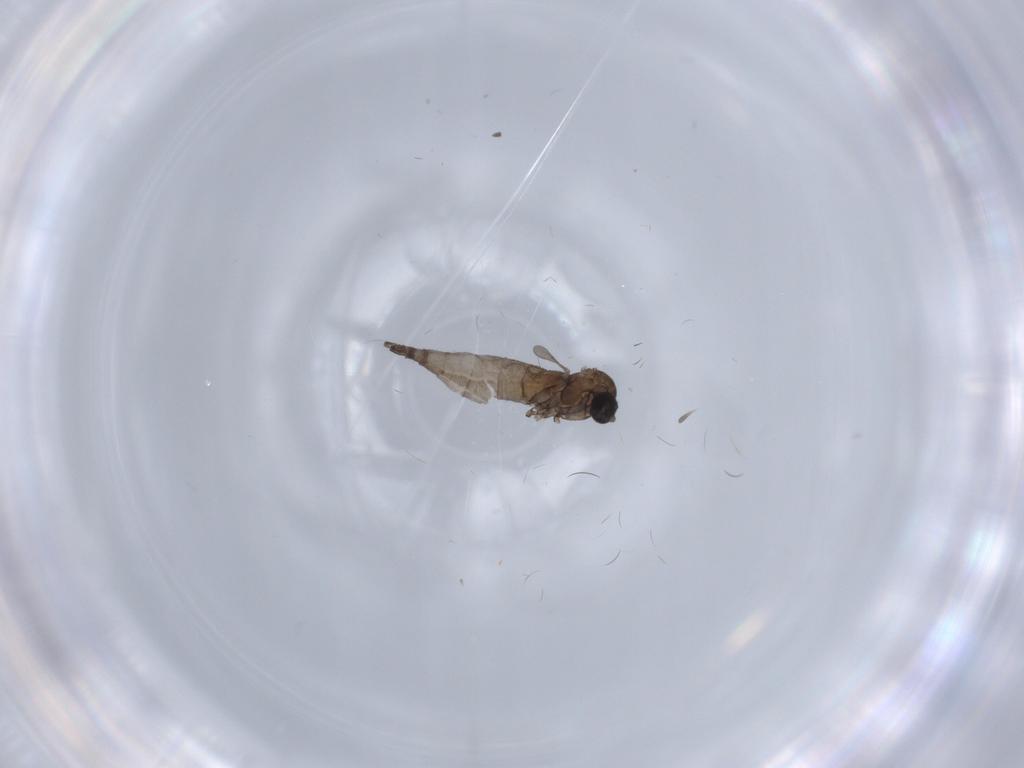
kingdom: Animalia
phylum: Arthropoda
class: Insecta
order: Diptera
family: Sciaridae
